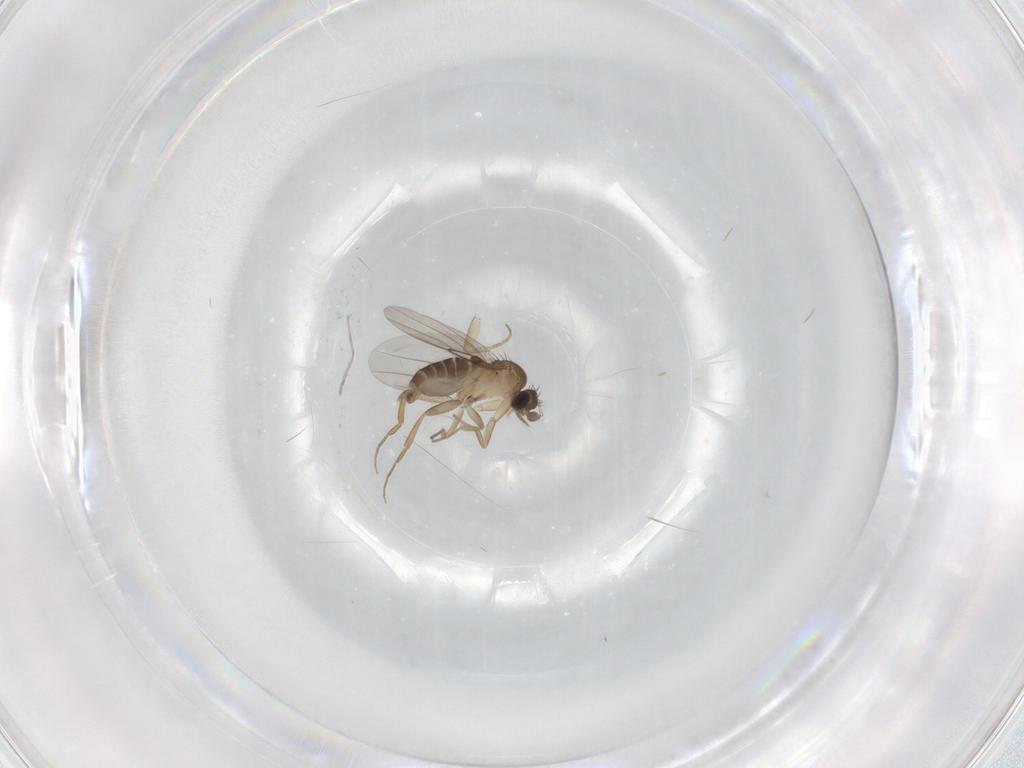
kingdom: Animalia
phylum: Arthropoda
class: Insecta
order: Diptera
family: Phoridae
